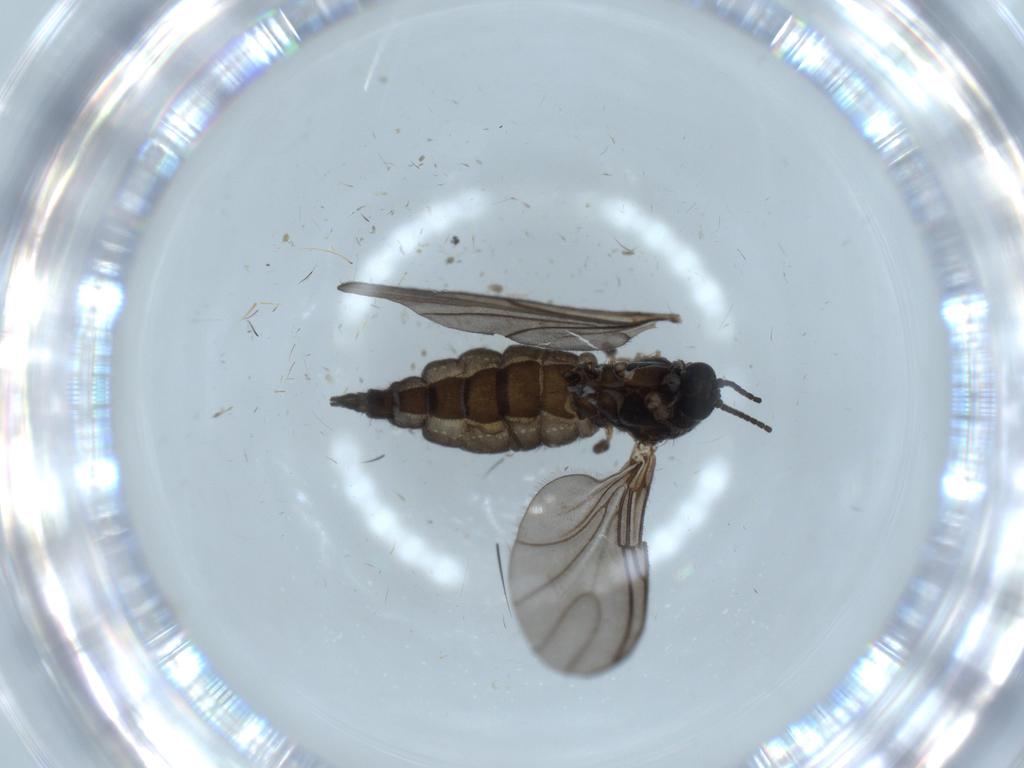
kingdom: Animalia
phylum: Arthropoda
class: Insecta
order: Diptera
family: Sciaridae
